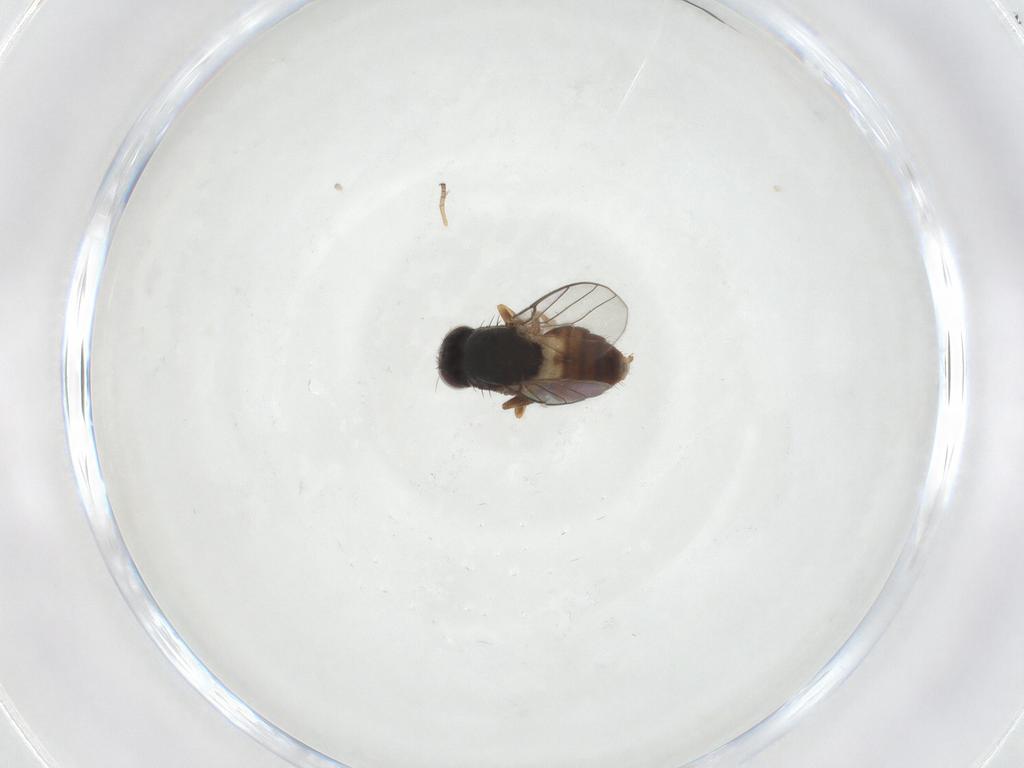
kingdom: Animalia
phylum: Arthropoda
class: Insecta
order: Diptera
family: Chloropidae
